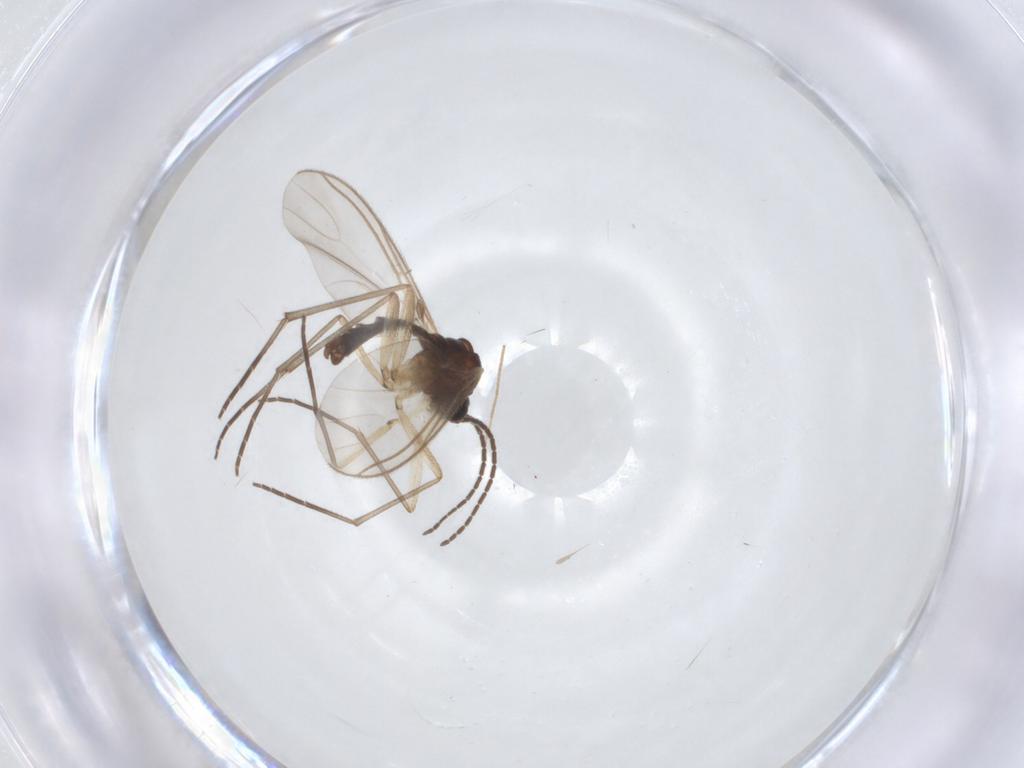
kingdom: Animalia
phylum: Arthropoda
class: Insecta
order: Diptera
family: Sciaridae
